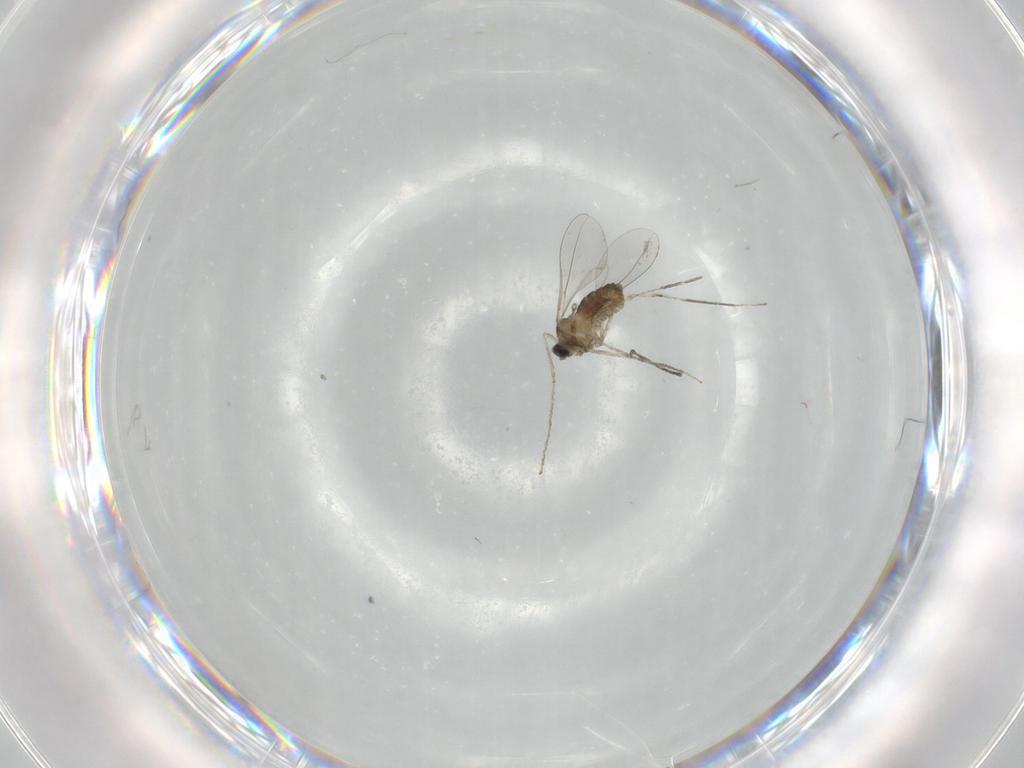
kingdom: Animalia
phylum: Arthropoda
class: Insecta
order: Diptera
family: Cecidomyiidae
